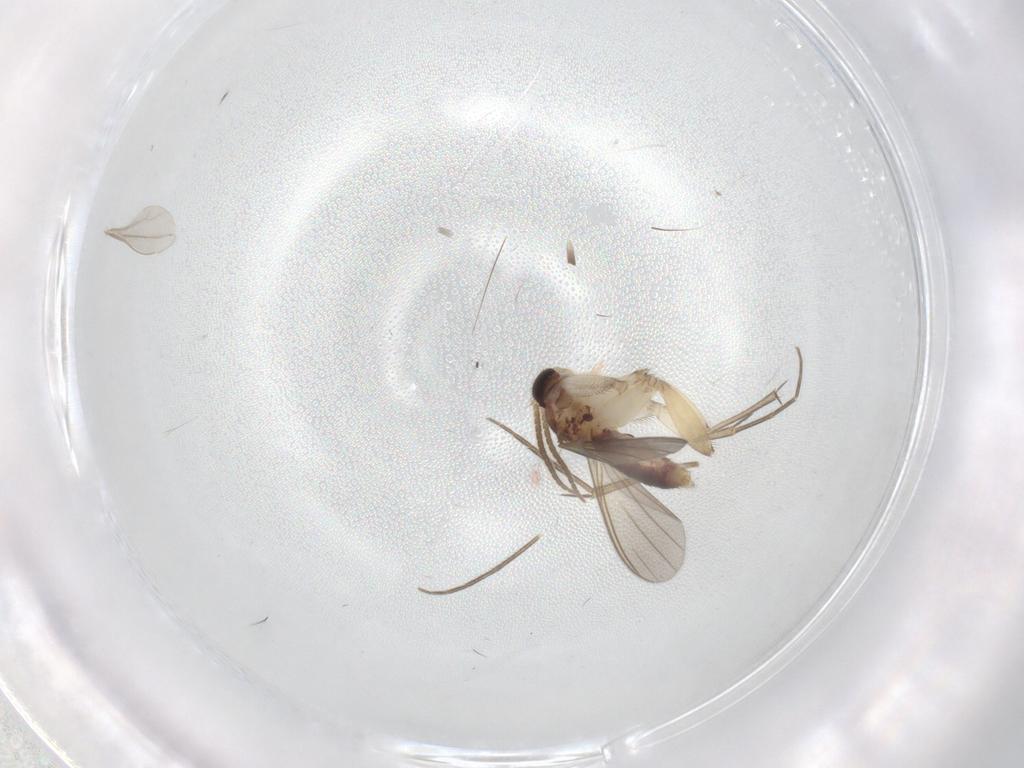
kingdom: Animalia
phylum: Arthropoda
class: Insecta
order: Diptera
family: Mycetophilidae
